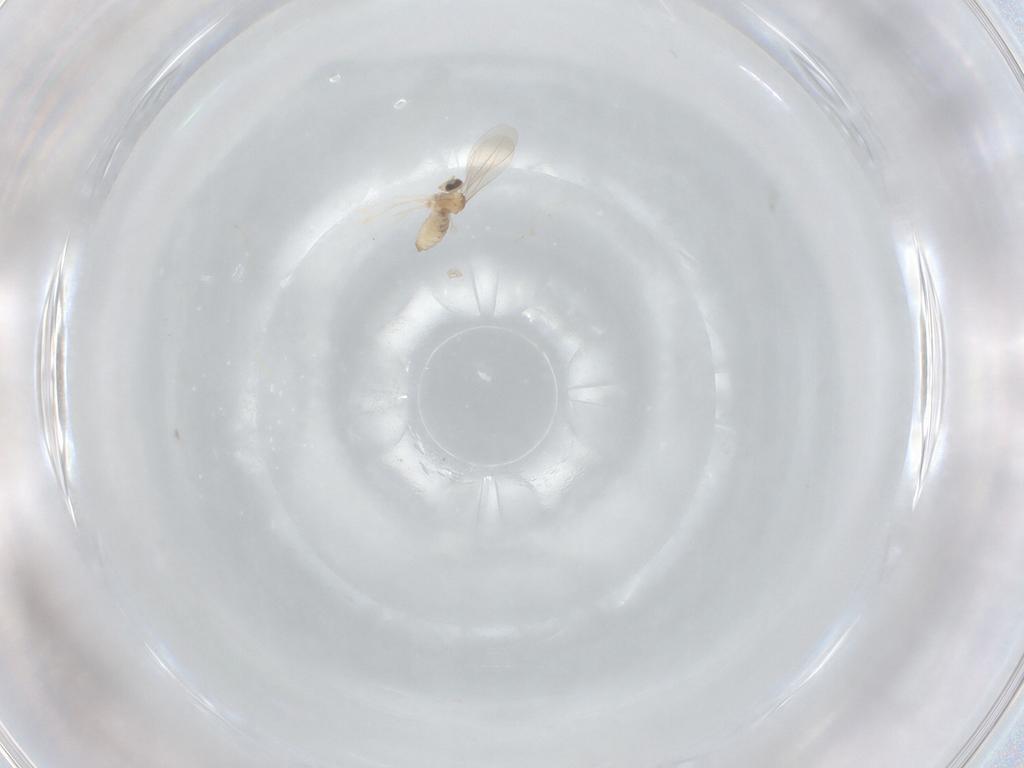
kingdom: Animalia
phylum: Arthropoda
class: Insecta
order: Diptera
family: Cecidomyiidae
